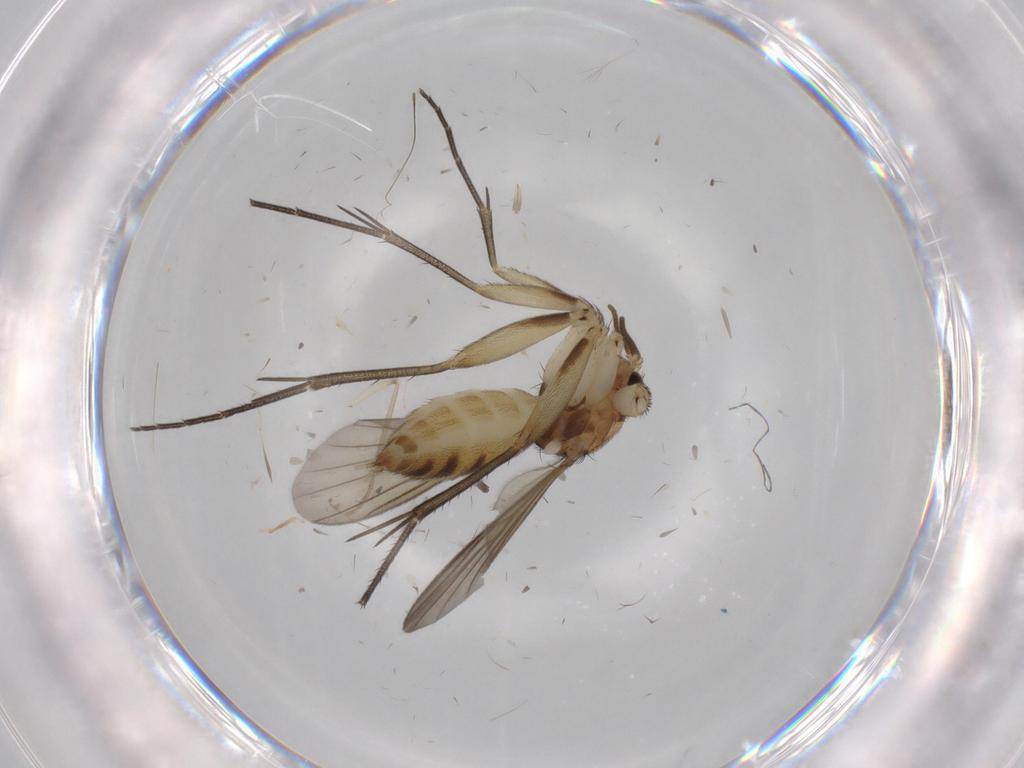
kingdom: Animalia
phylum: Arthropoda
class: Insecta
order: Diptera
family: Mycetophilidae
